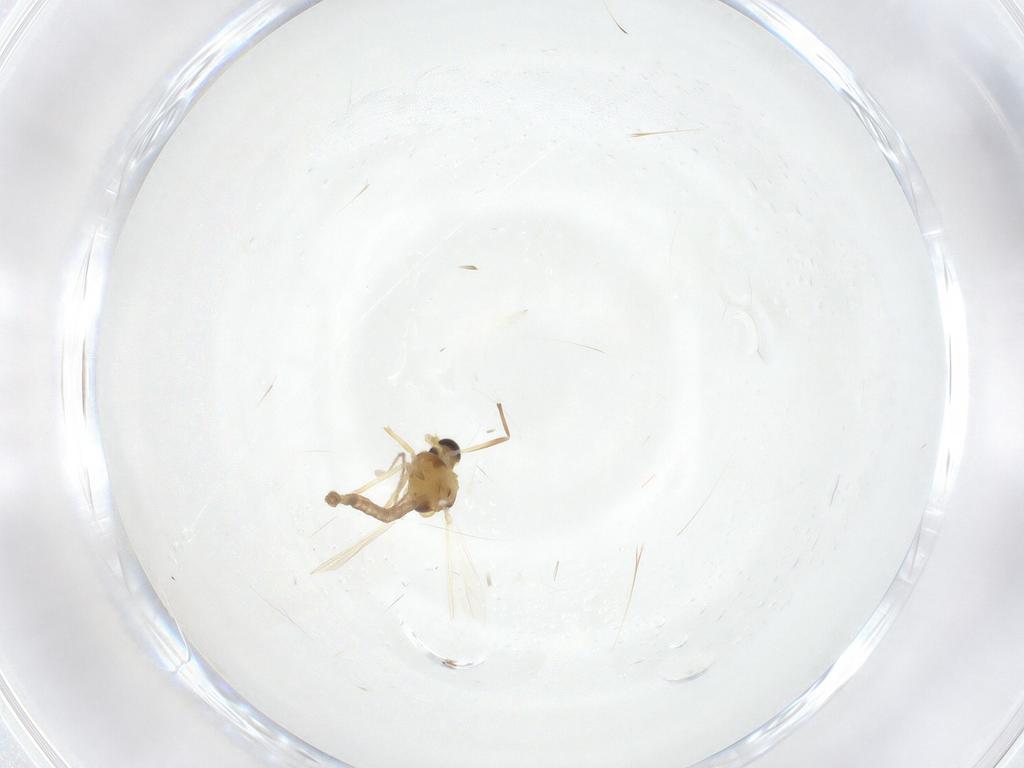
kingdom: Animalia
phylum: Arthropoda
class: Insecta
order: Diptera
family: Chironomidae
